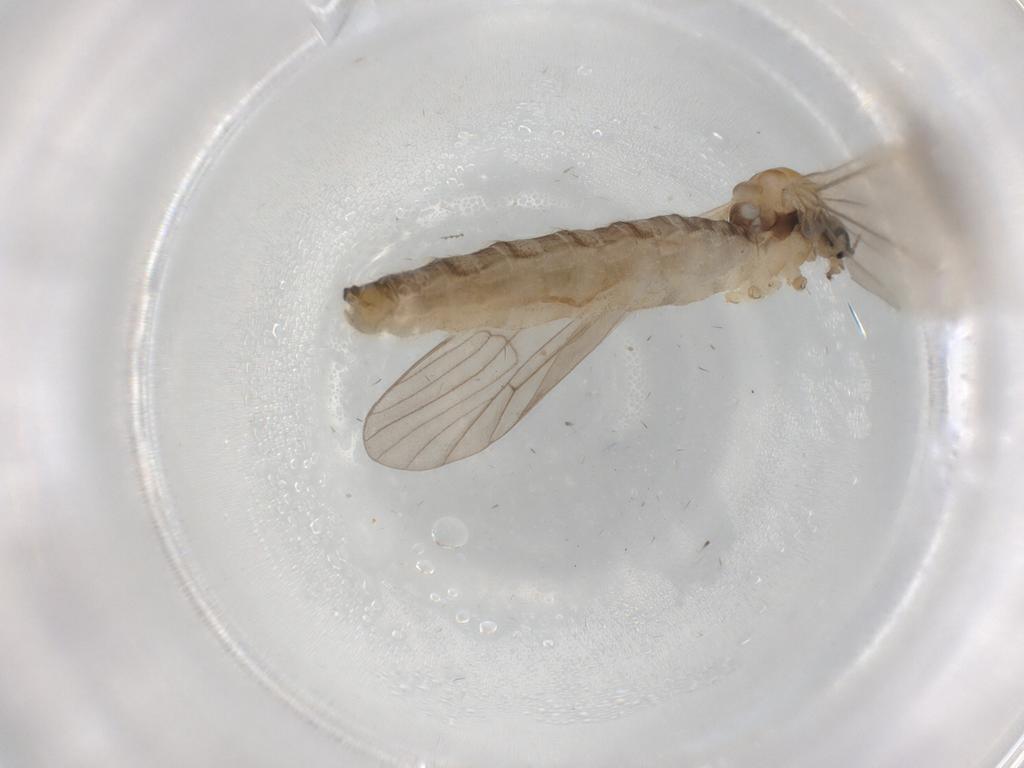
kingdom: Animalia
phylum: Arthropoda
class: Insecta
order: Diptera
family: Limoniidae
